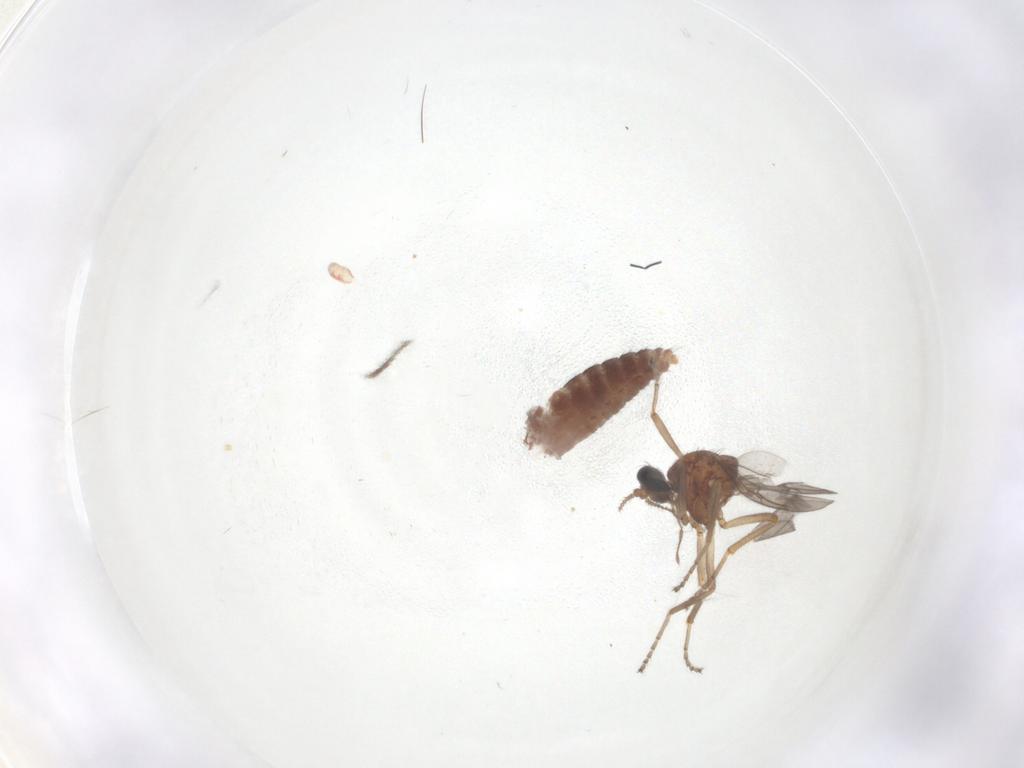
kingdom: Animalia
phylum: Arthropoda
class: Insecta
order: Diptera
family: Ceratopogonidae
